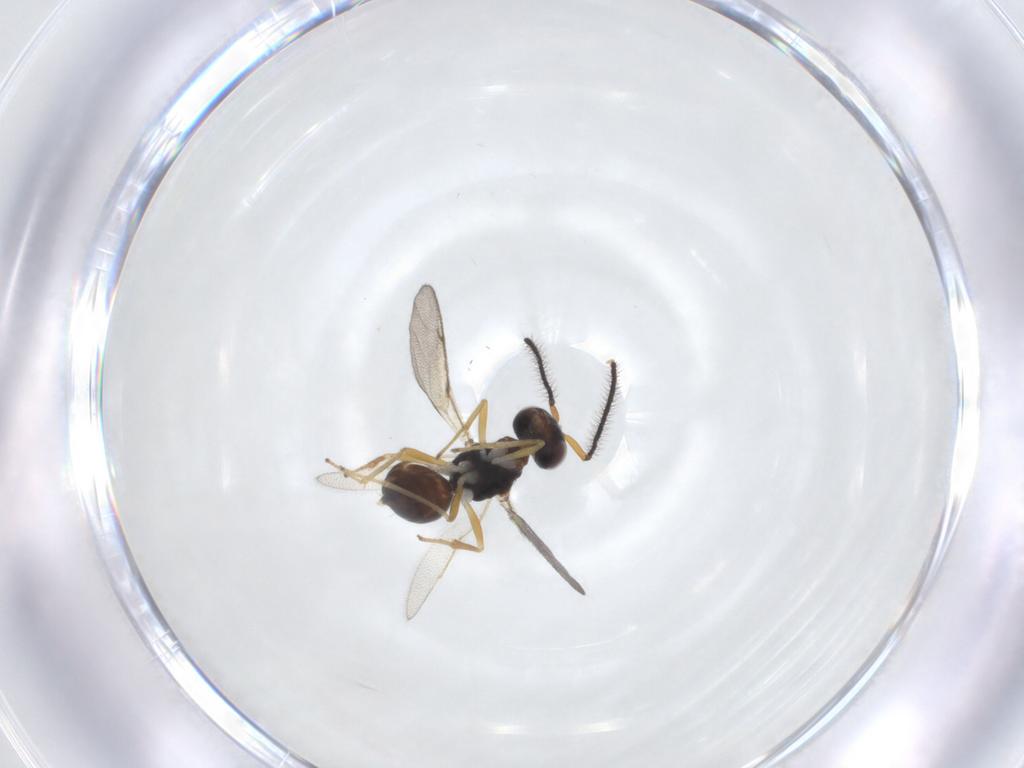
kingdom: Animalia
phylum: Arthropoda
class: Insecta
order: Hymenoptera
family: Diparidae
